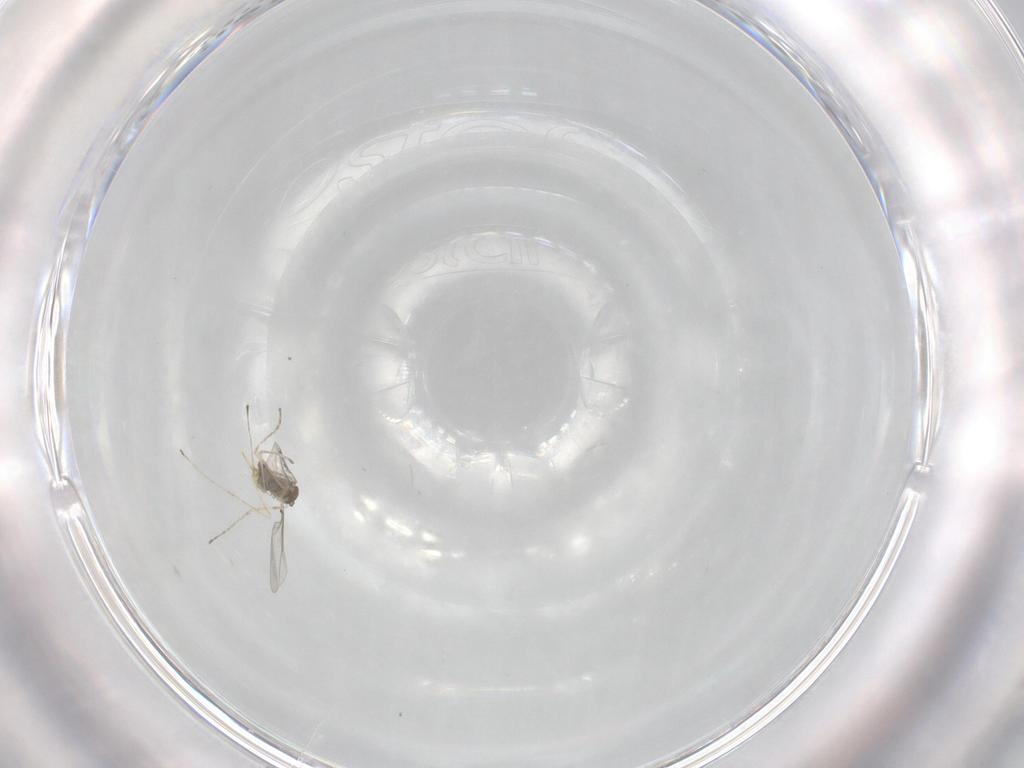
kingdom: Animalia
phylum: Arthropoda
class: Insecta
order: Diptera
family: Cecidomyiidae
